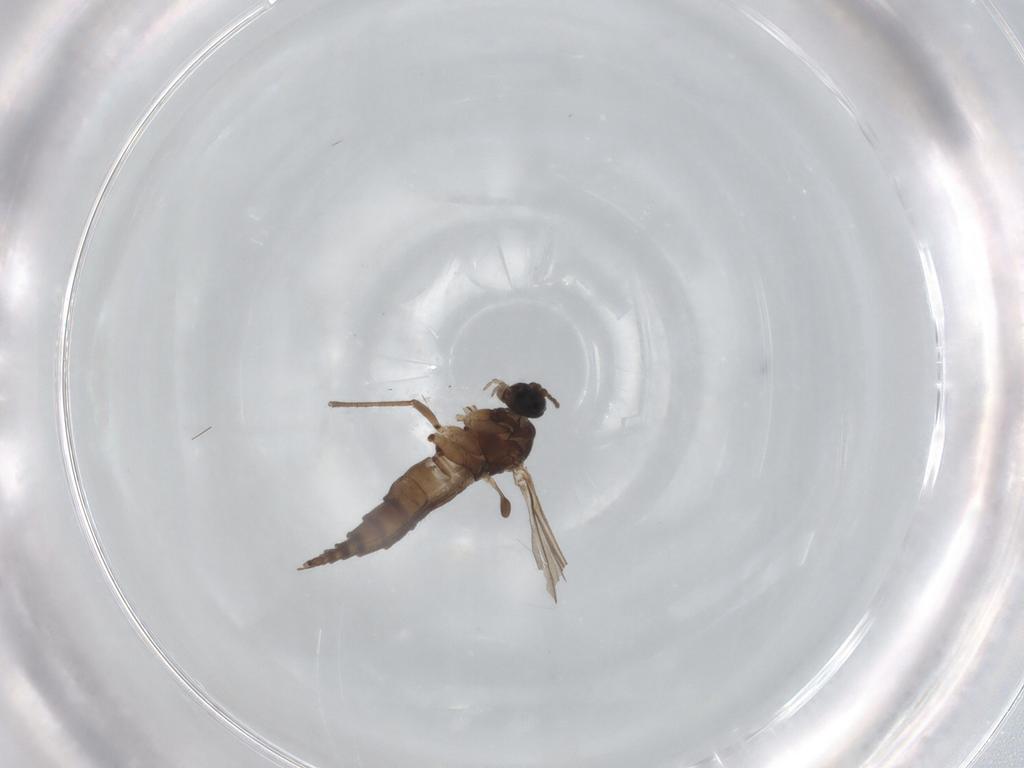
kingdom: Animalia
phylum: Arthropoda
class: Insecta
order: Diptera
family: Sciaridae
